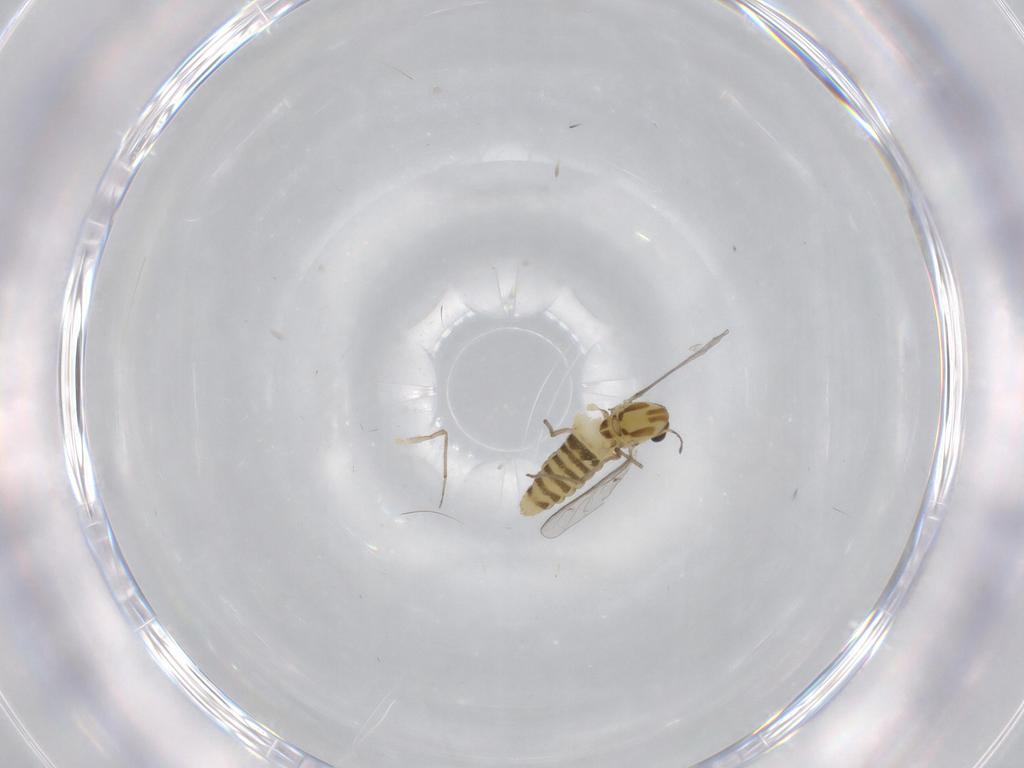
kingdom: Animalia
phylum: Arthropoda
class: Insecta
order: Diptera
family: Chironomidae
